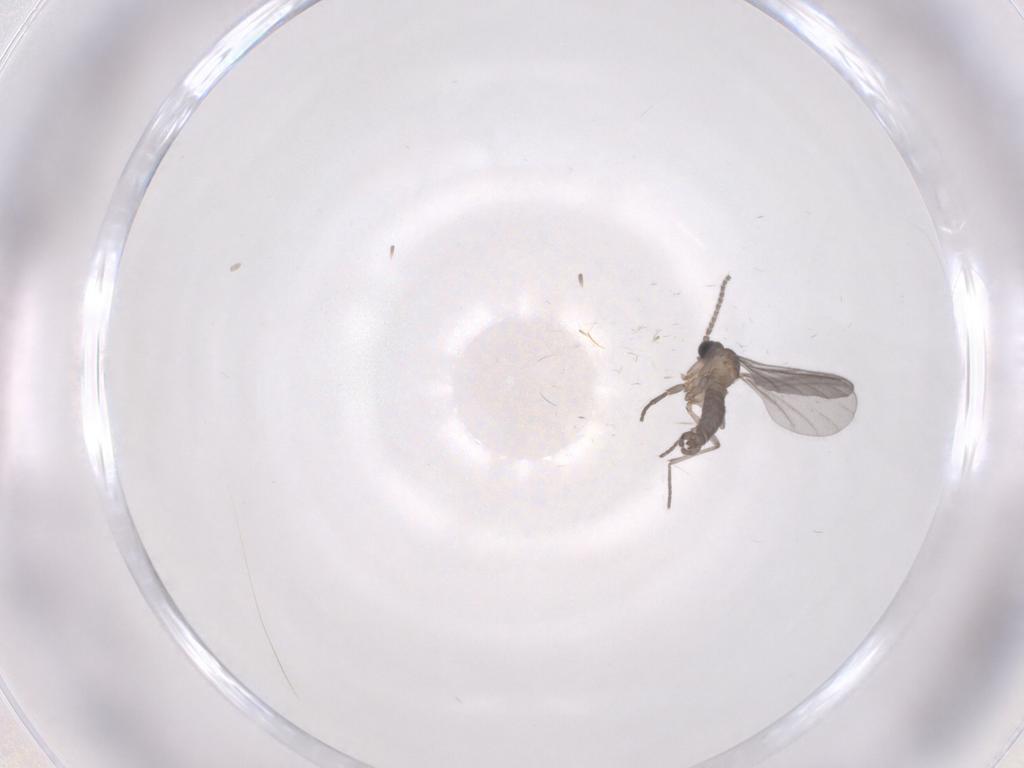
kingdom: Animalia
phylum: Arthropoda
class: Insecta
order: Diptera
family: Sciaridae
